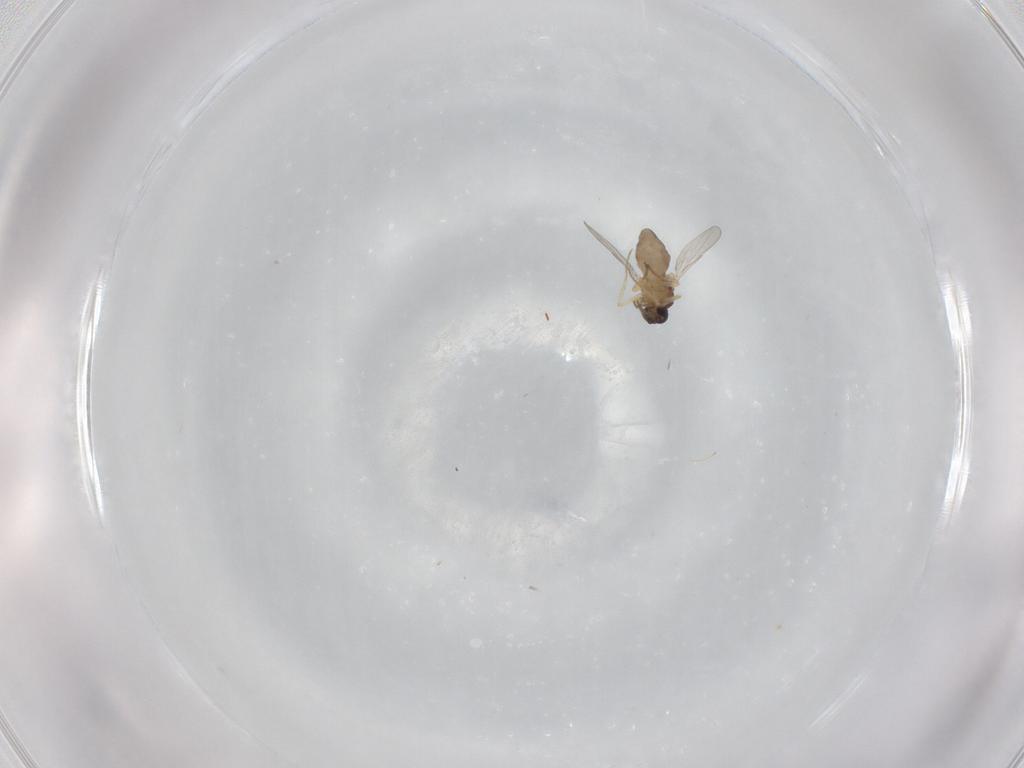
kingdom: Animalia
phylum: Arthropoda
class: Insecta
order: Diptera
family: Ceratopogonidae
